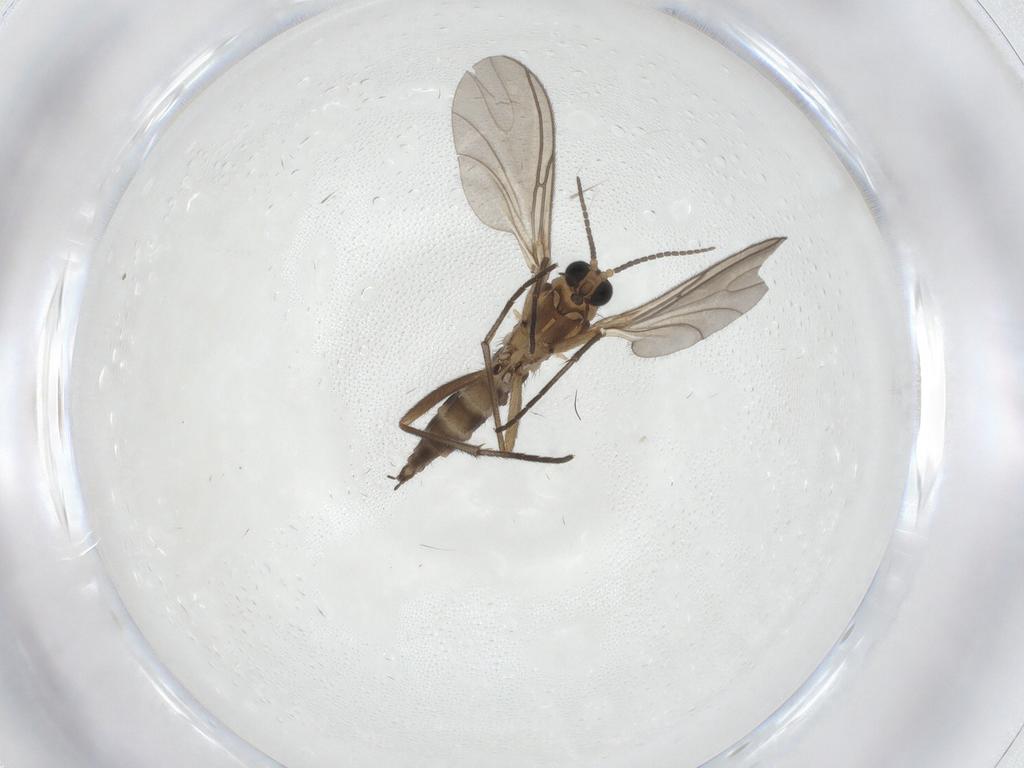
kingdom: Animalia
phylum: Arthropoda
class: Insecta
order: Diptera
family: Sciaridae
